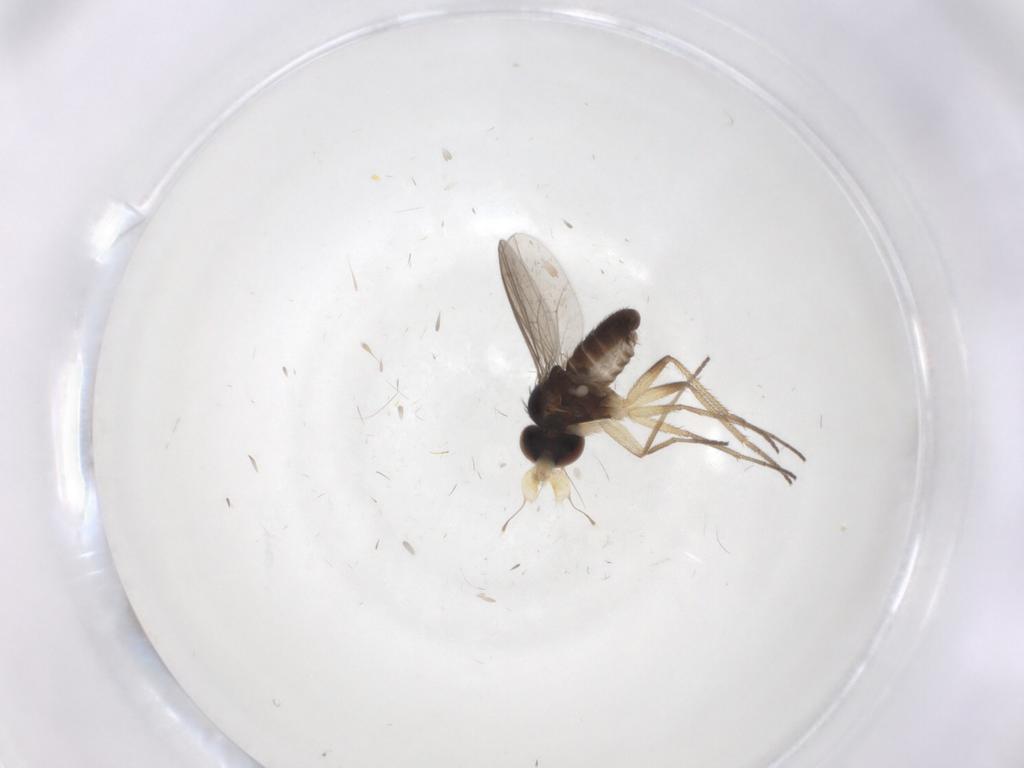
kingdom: Animalia
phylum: Arthropoda
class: Insecta
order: Diptera
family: Dolichopodidae
